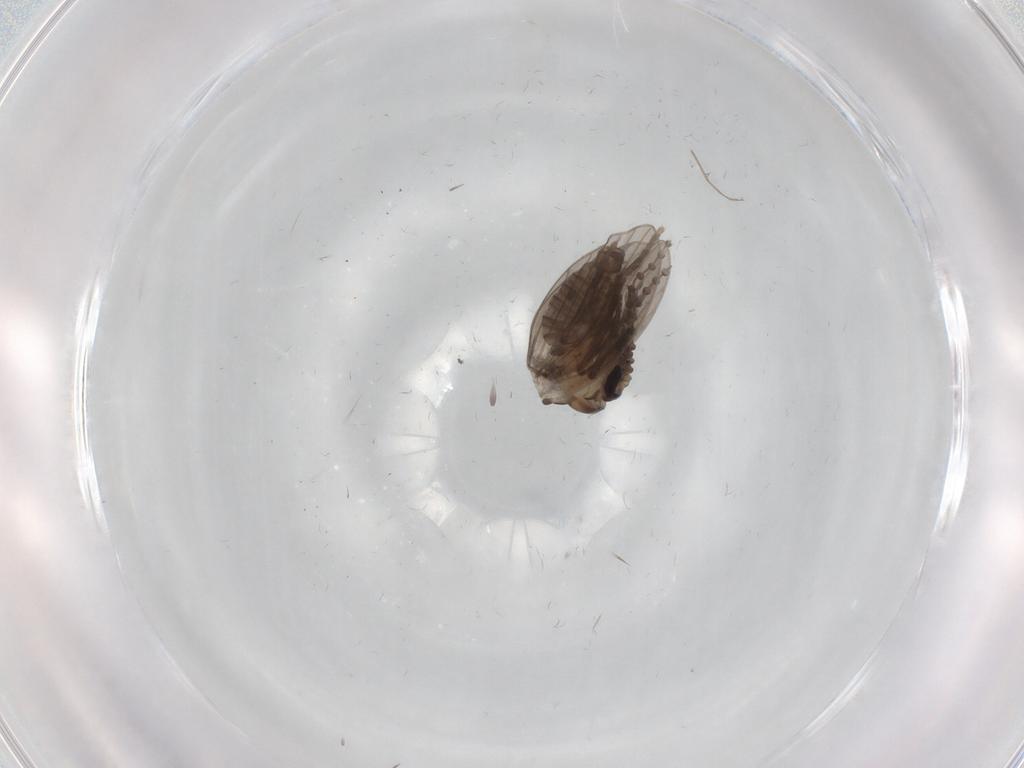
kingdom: Animalia
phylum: Arthropoda
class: Insecta
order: Diptera
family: Psychodidae
